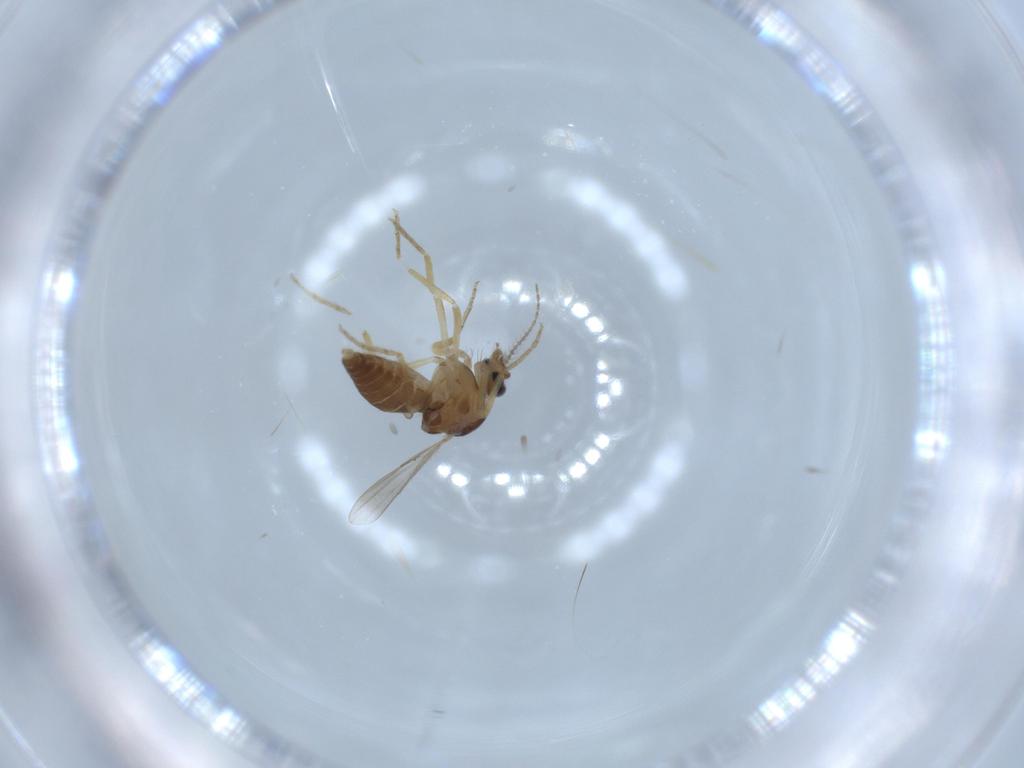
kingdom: Animalia
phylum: Arthropoda
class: Insecta
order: Diptera
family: Ceratopogonidae
